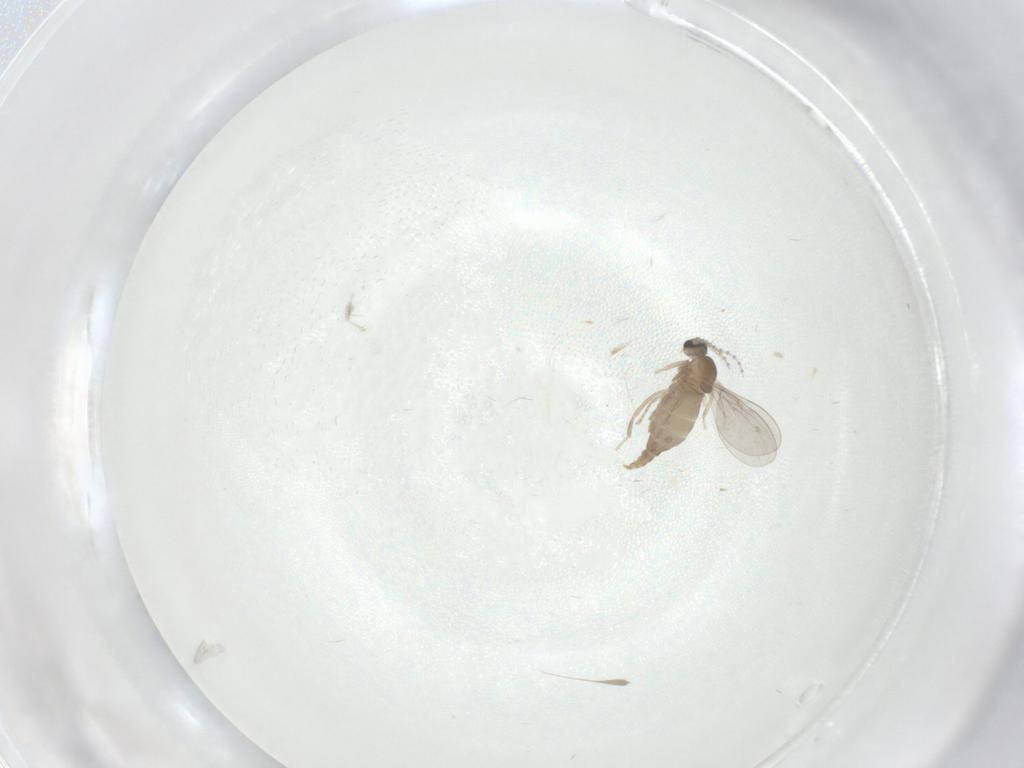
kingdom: Animalia
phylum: Arthropoda
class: Insecta
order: Diptera
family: Cecidomyiidae
